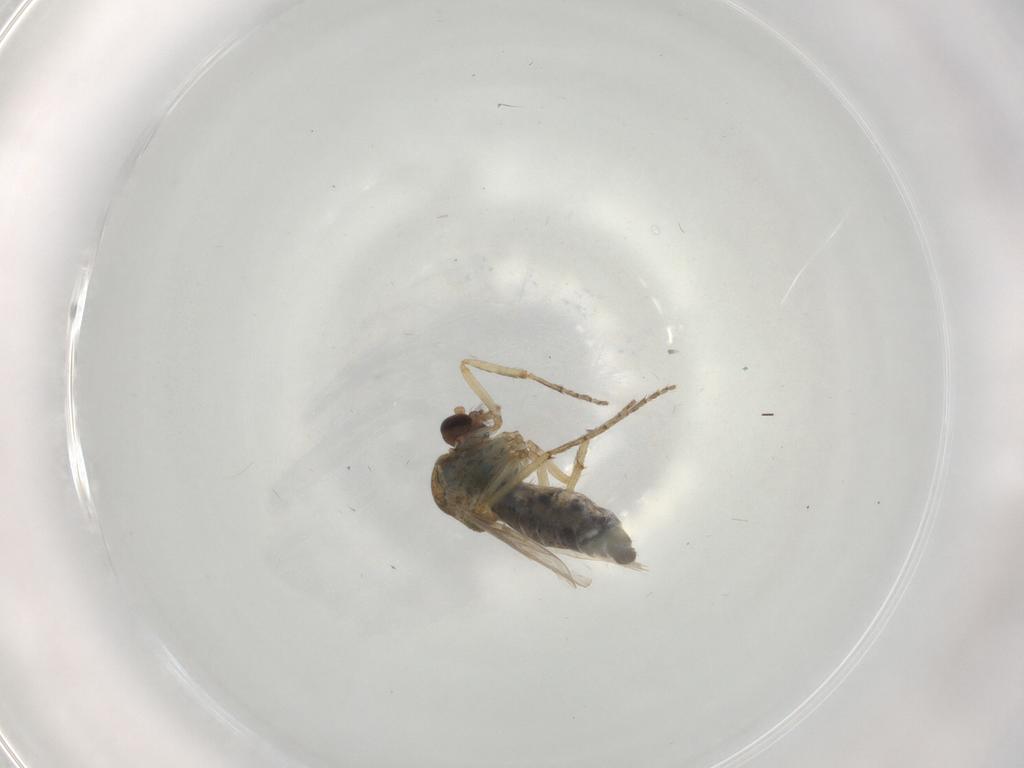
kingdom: Animalia
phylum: Arthropoda
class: Insecta
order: Diptera
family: Ceratopogonidae
